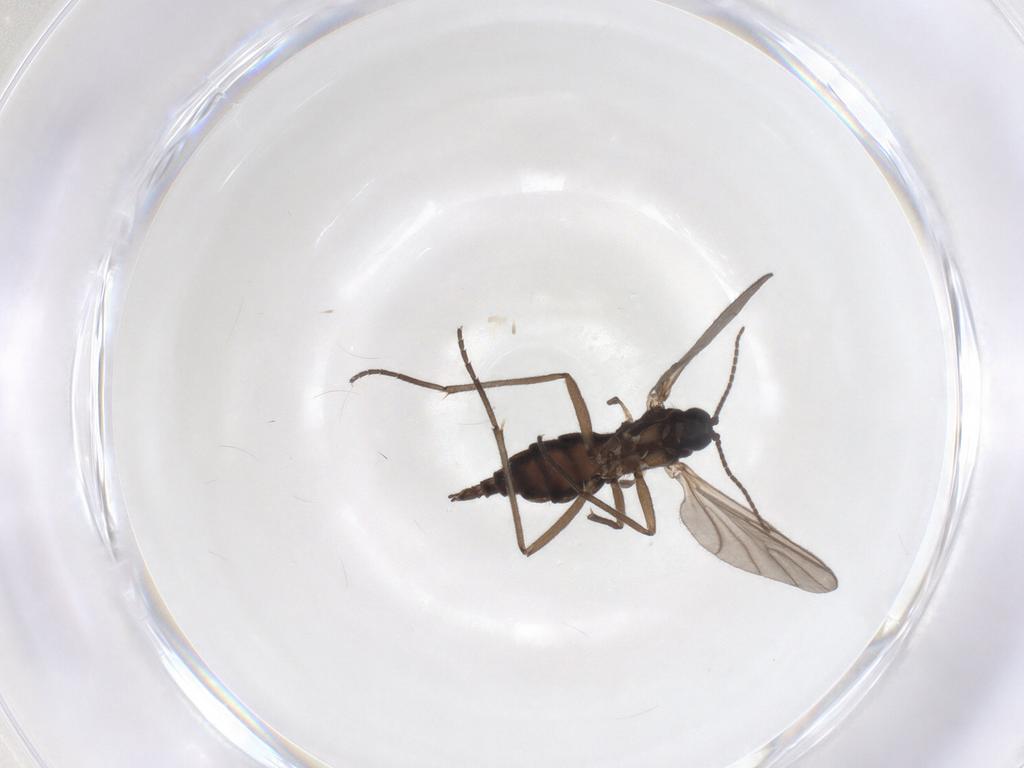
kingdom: Animalia
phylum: Arthropoda
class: Insecta
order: Diptera
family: Sciaridae
